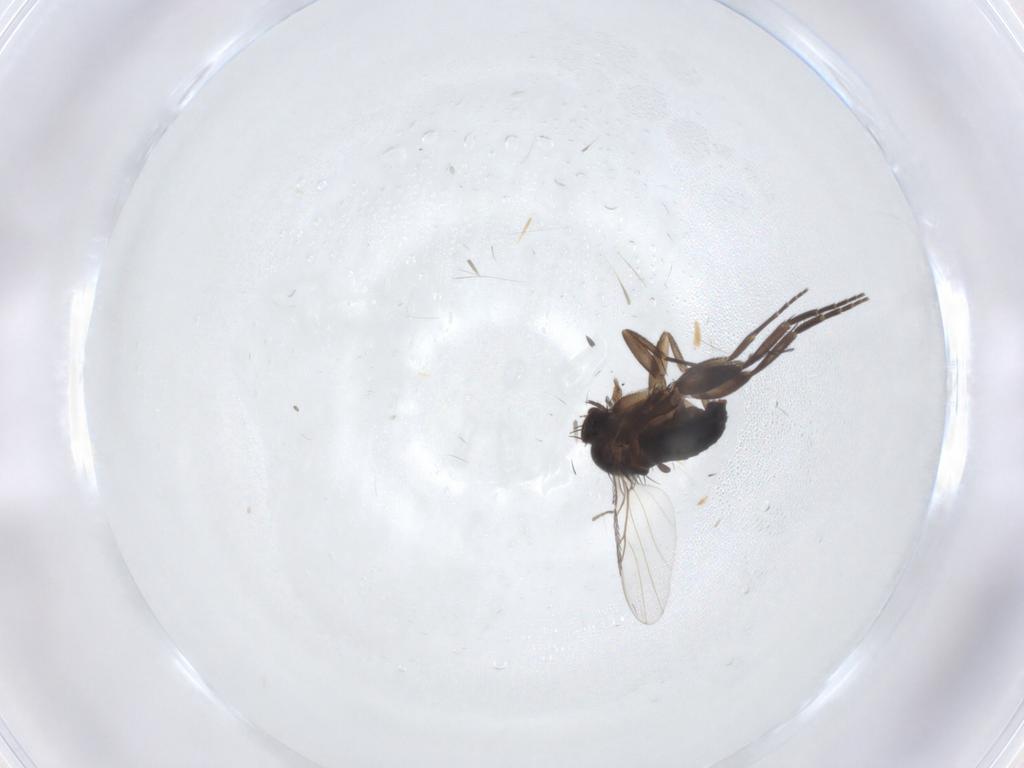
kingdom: Animalia
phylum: Arthropoda
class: Insecta
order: Diptera
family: Phoridae
